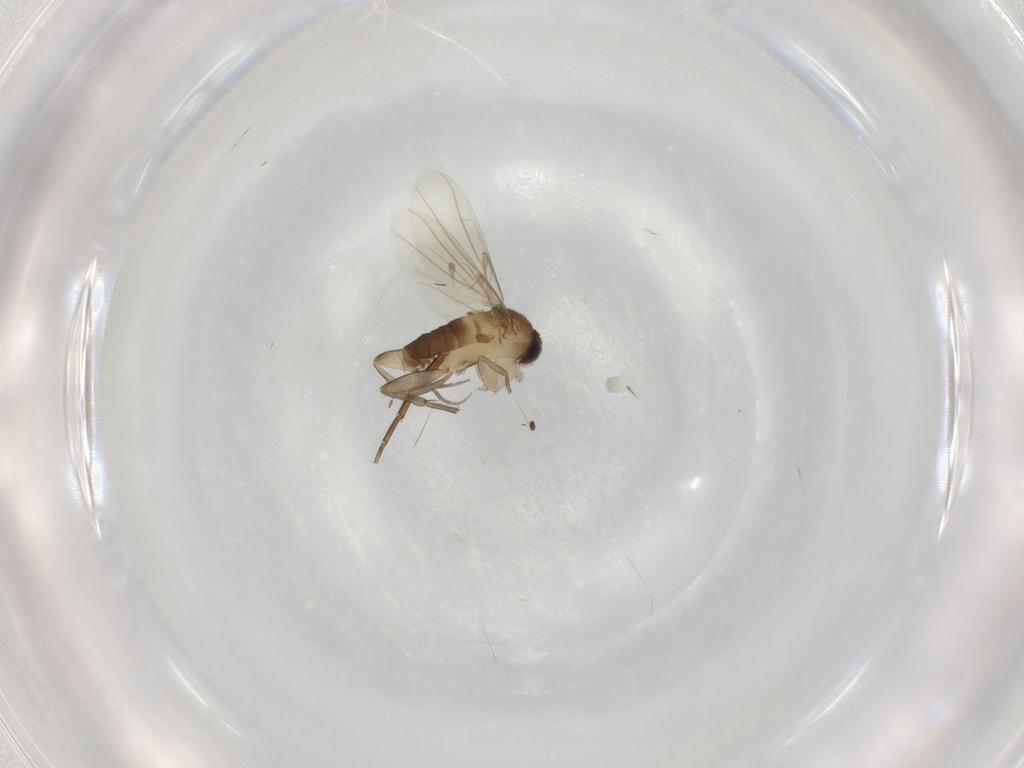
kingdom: Animalia
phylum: Arthropoda
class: Insecta
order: Diptera
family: Phoridae
